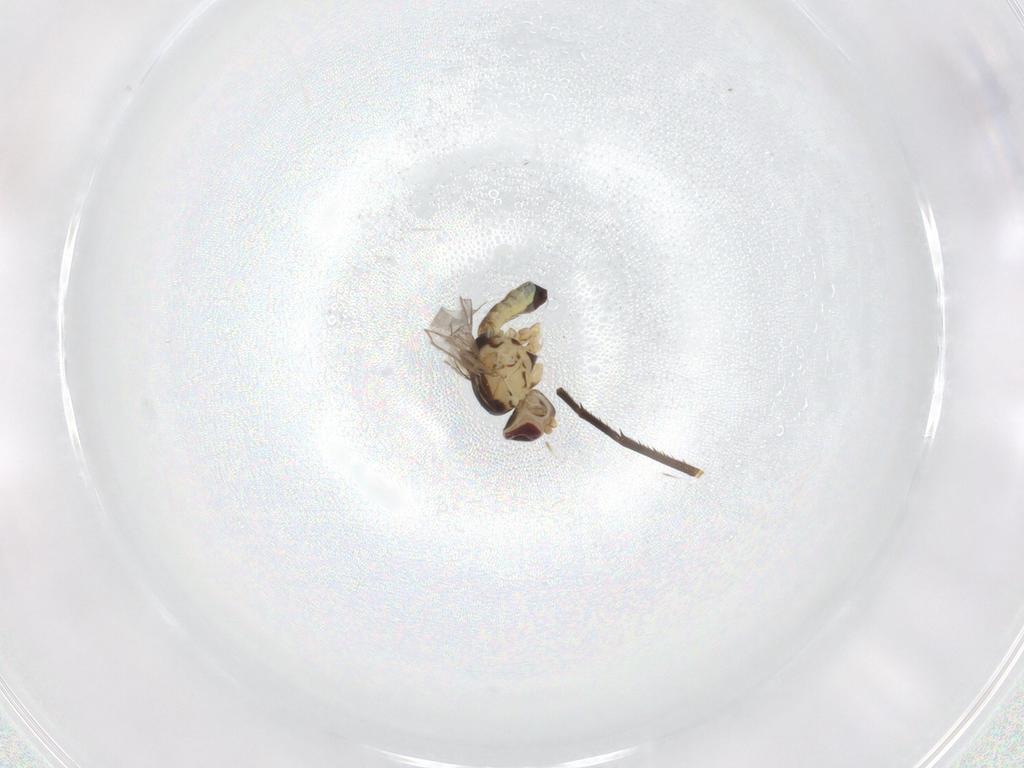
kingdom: Animalia
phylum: Arthropoda
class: Insecta
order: Diptera
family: Agromyzidae
